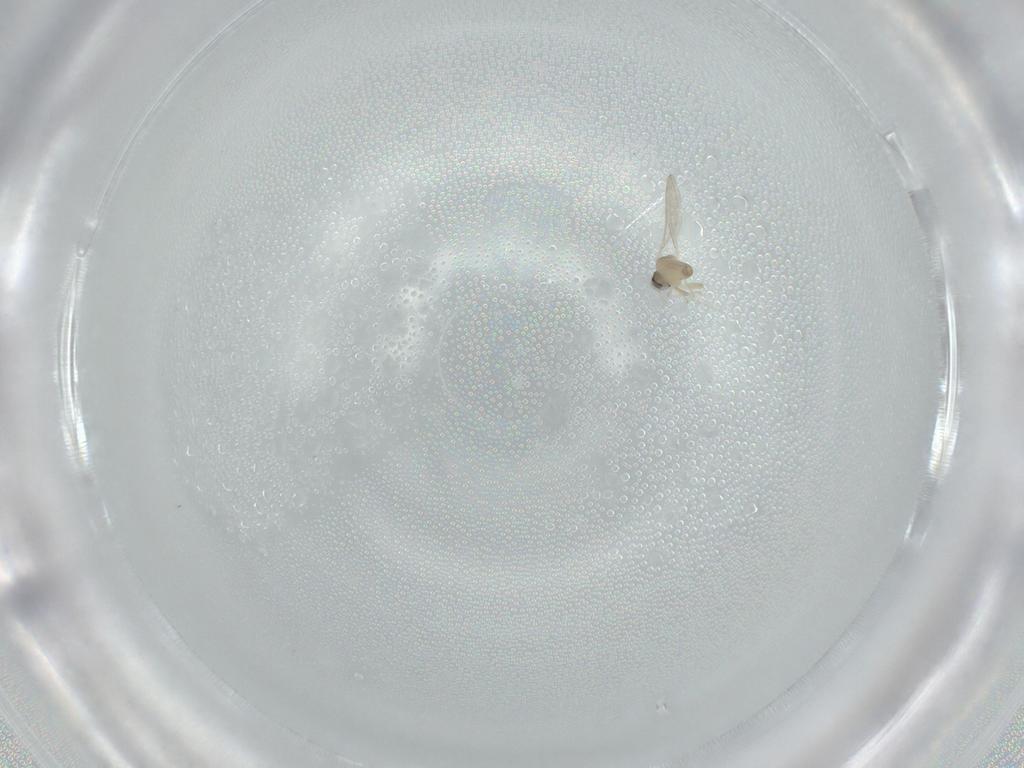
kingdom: Animalia
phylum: Arthropoda
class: Insecta
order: Diptera
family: Cecidomyiidae
